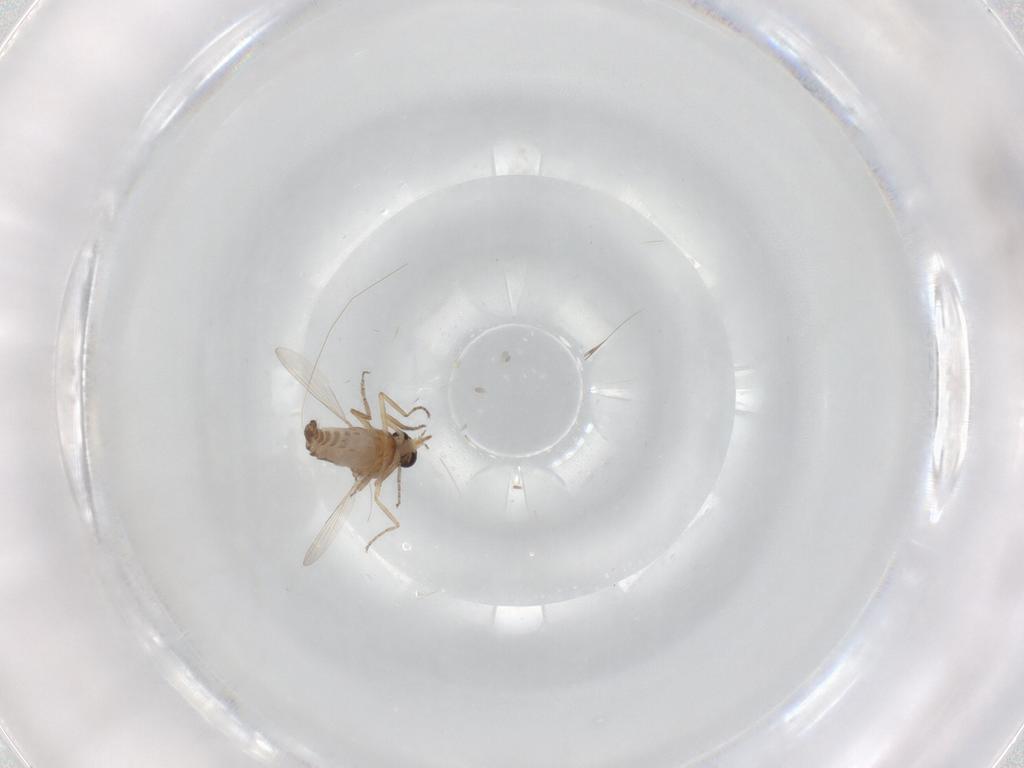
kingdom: Animalia
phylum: Arthropoda
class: Insecta
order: Diptera
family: Ceratopogonidae
